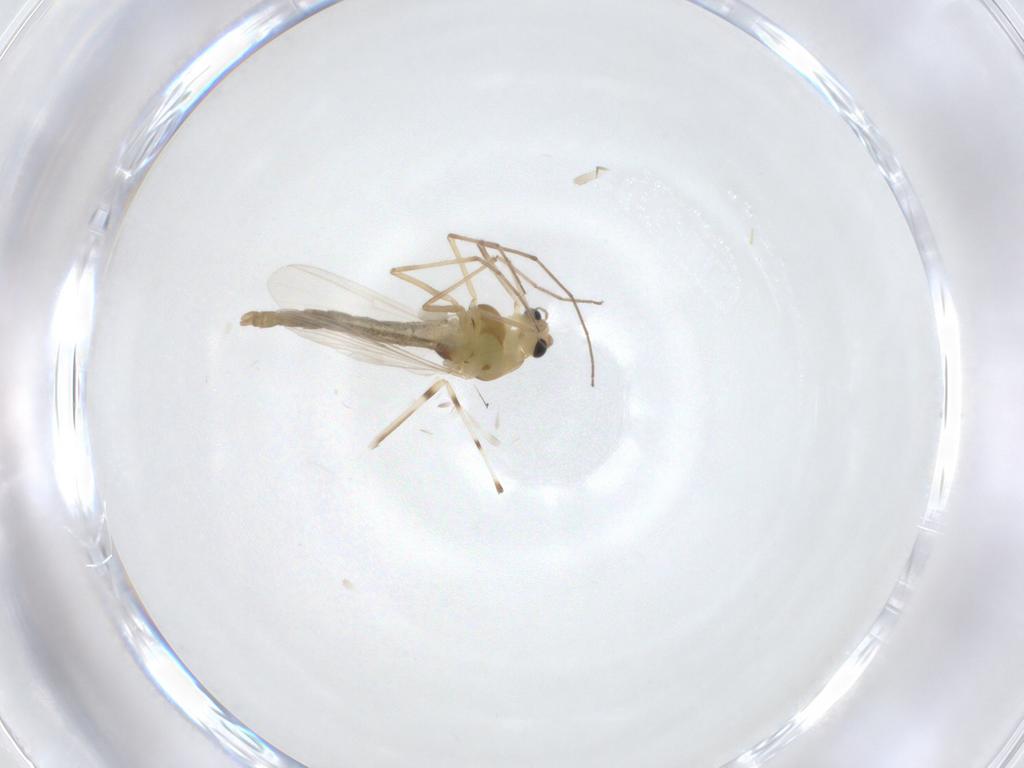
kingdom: Animalia
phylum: Arthropoda
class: Insecta
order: Diptera
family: Chironomidae
